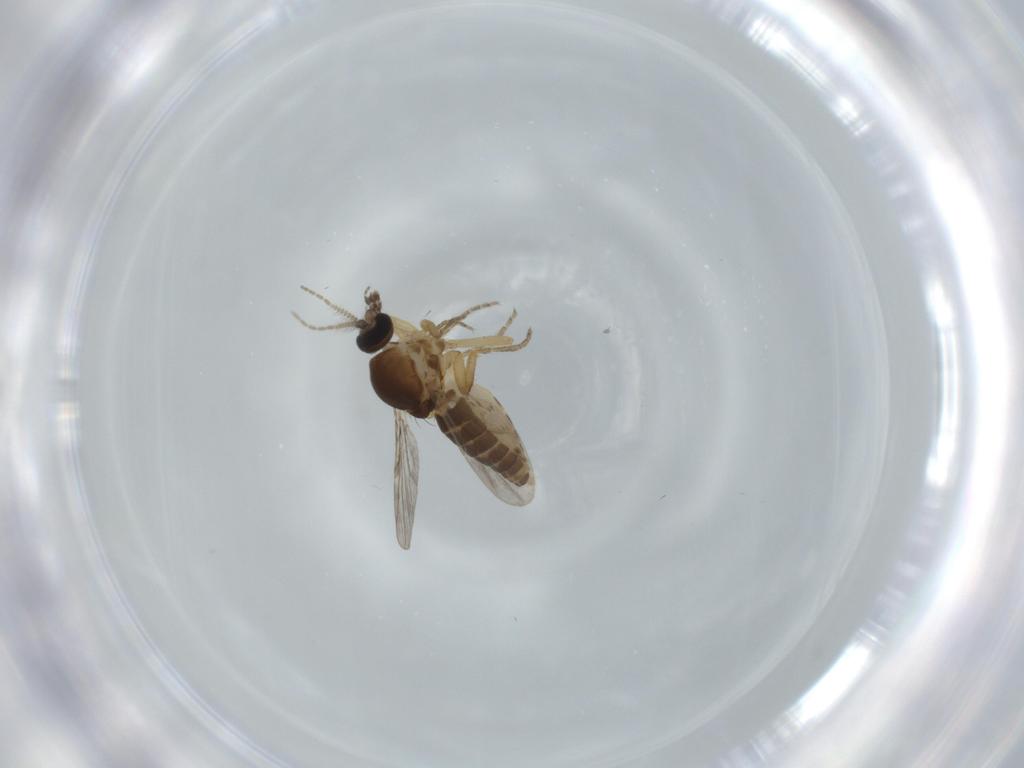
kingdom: Animalia
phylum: Arthropoda
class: Insecta
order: Diptera
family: Ceratopogonidae
